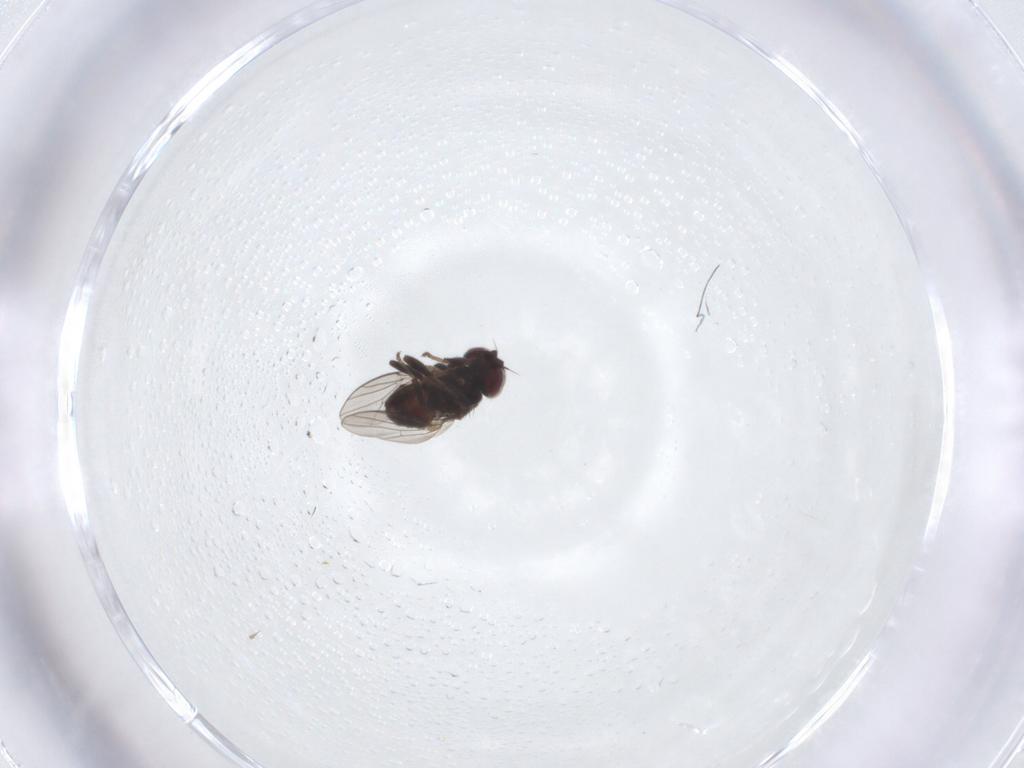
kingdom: Animalia
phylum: Arthropoda
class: Insecta
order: Diptera
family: Chloropidae
